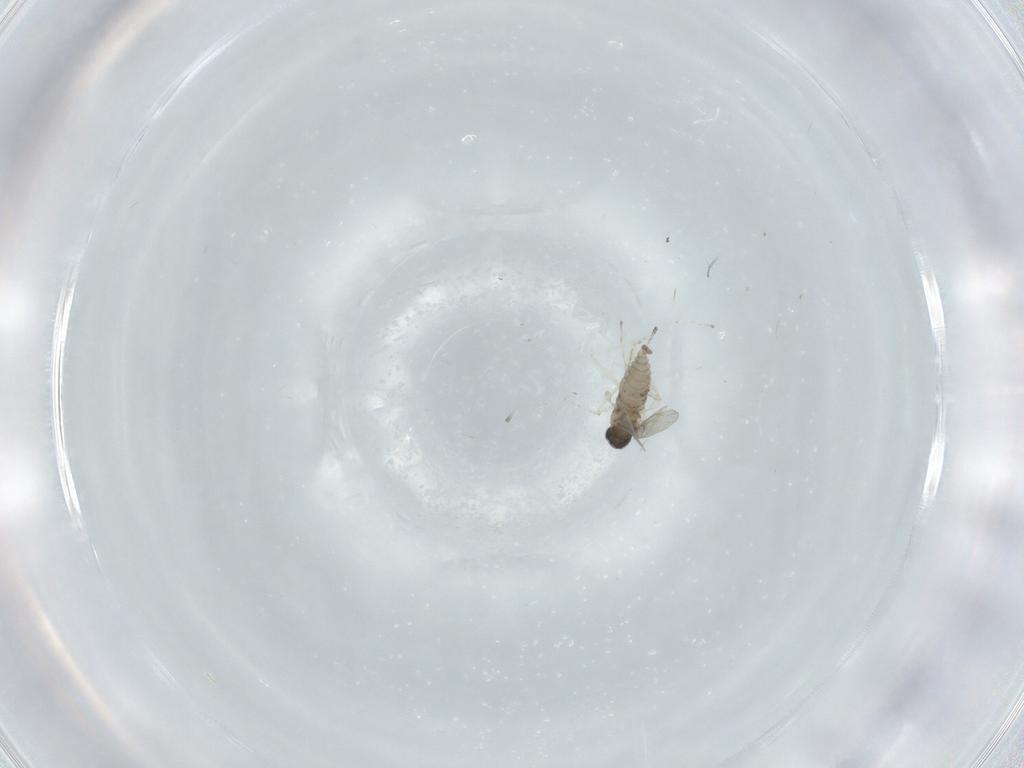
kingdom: Animalia
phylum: Arthropoda
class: Insecta
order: Diptera
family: Cecidomyiidae
